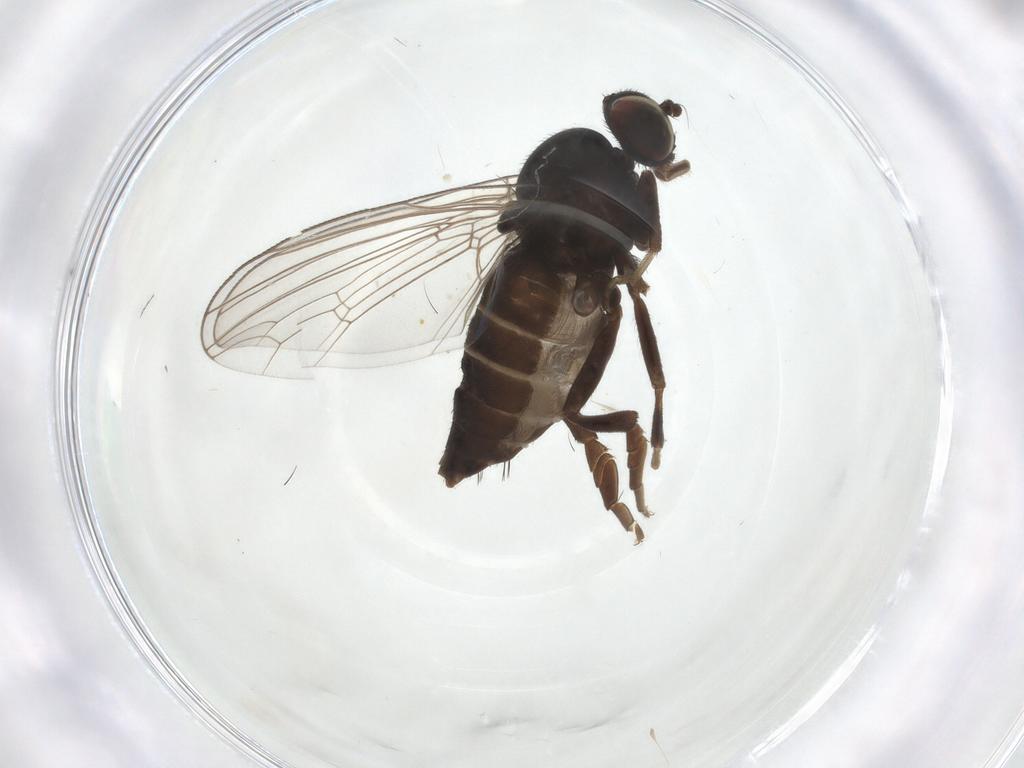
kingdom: Animalia
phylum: Arthropoda
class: Insecta
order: Diptera
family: Platypezidae
